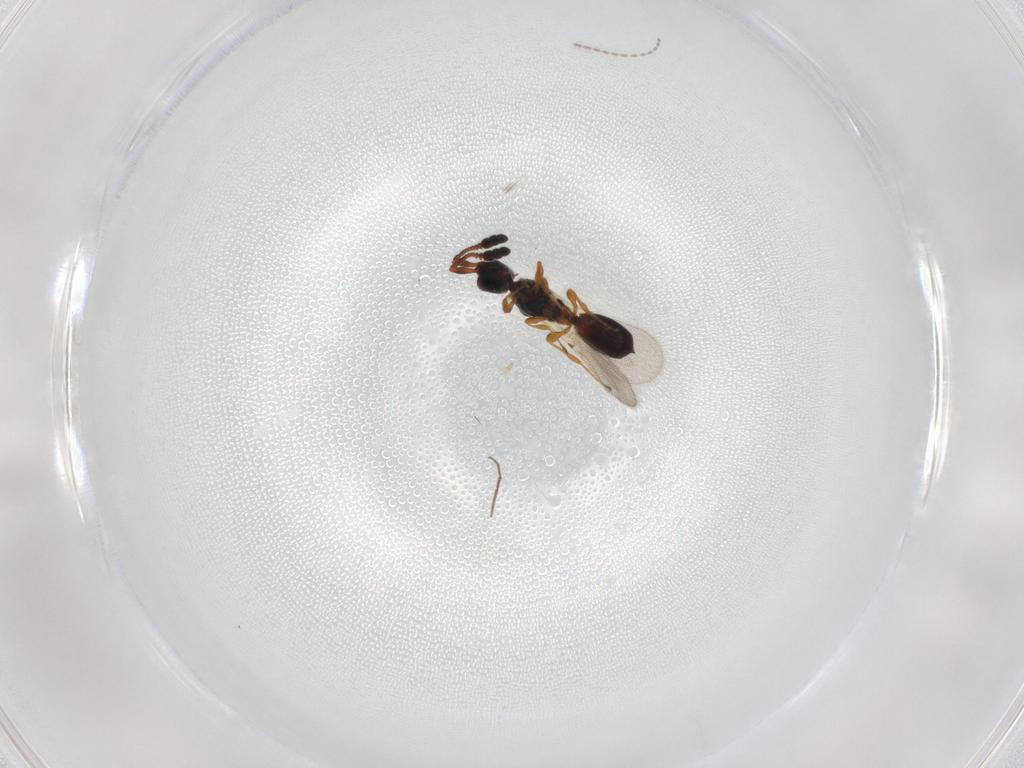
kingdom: Animalia
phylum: Arthropoda
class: Insecta
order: Hymenoptera
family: Diapriidae
